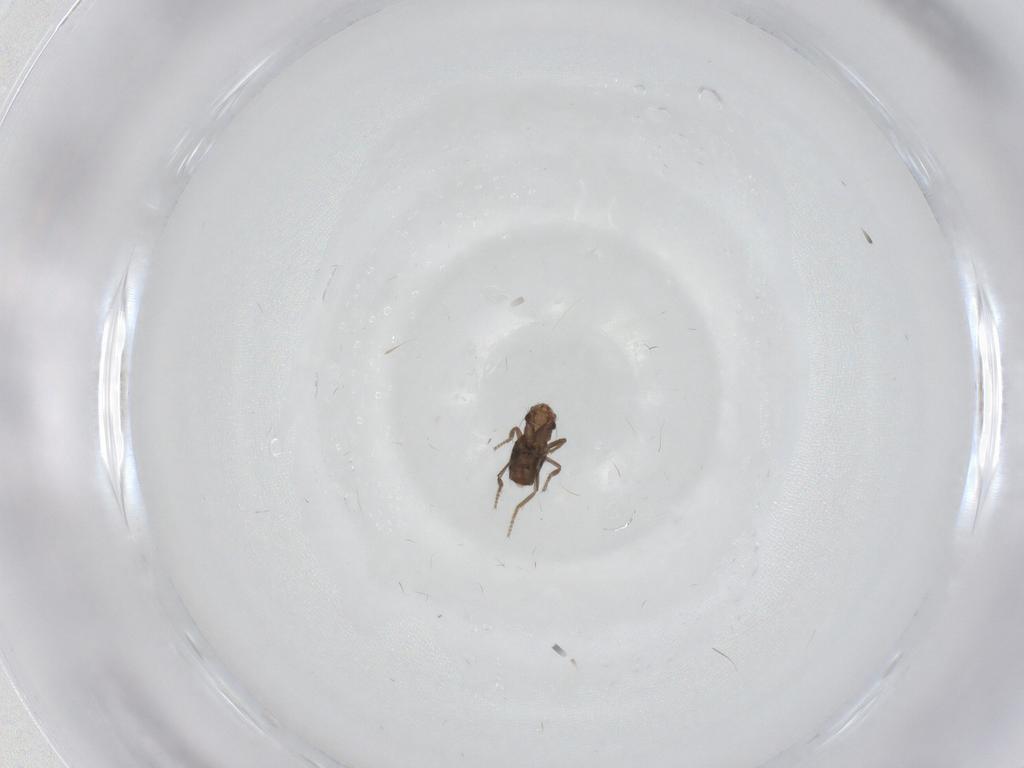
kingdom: Animalia
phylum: Arthropoda
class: Insecta
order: Diptera
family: Phoridae
